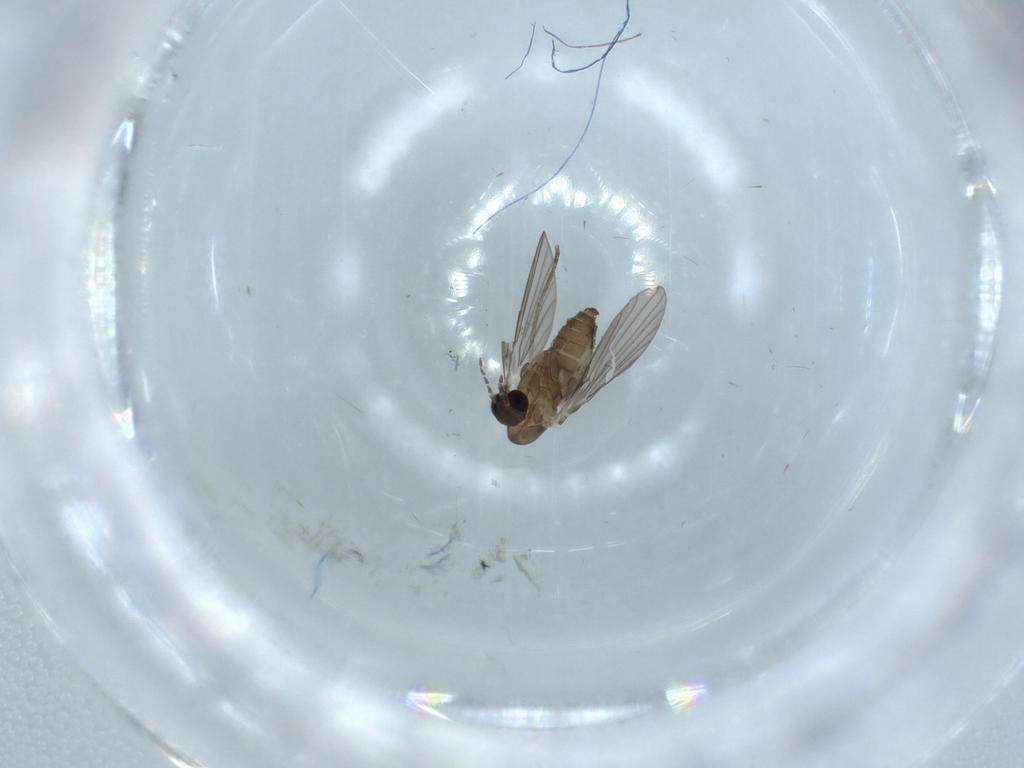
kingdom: Animalia
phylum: Arthropoda
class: Insecta
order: Diptera
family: Psychodidae
